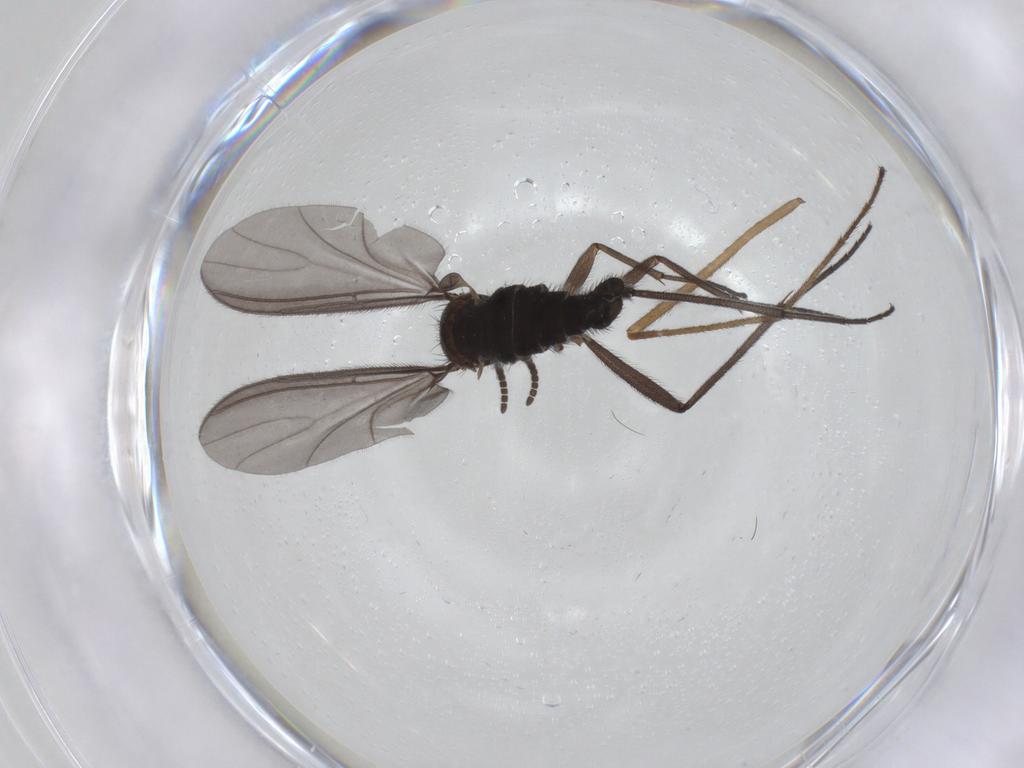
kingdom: Animalia
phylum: Arthropoda
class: Insecta
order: Diptera
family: Sciaridae
